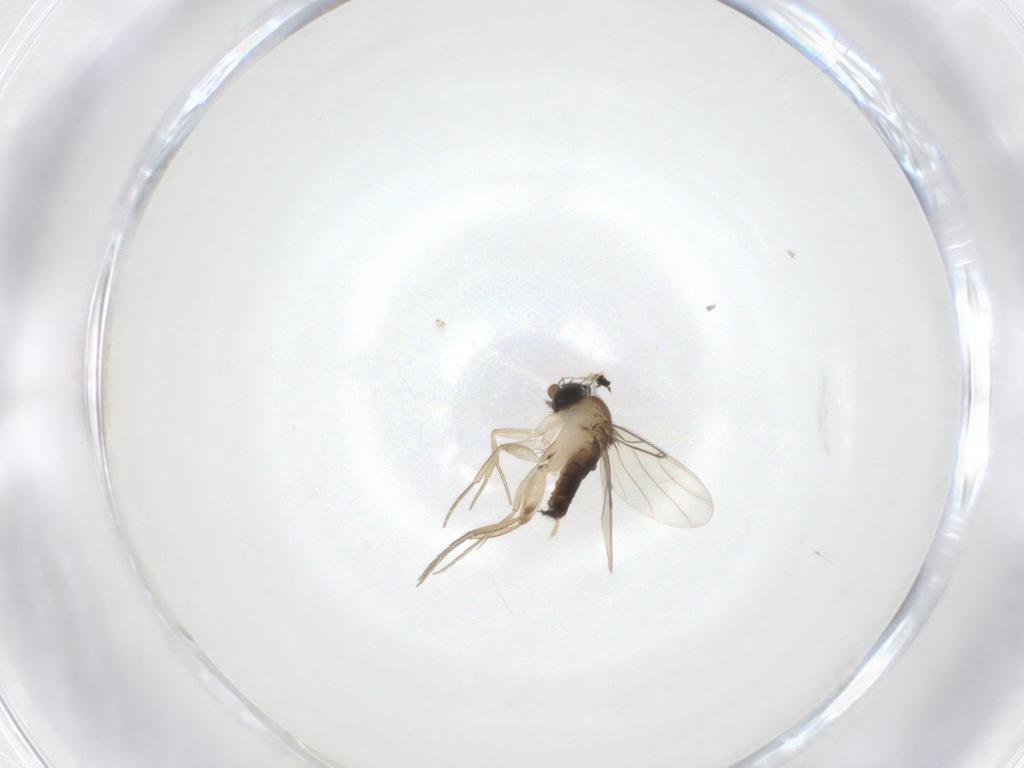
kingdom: Animalia
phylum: Arthropoda
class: Insecta
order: Diptera
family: Phoridae
